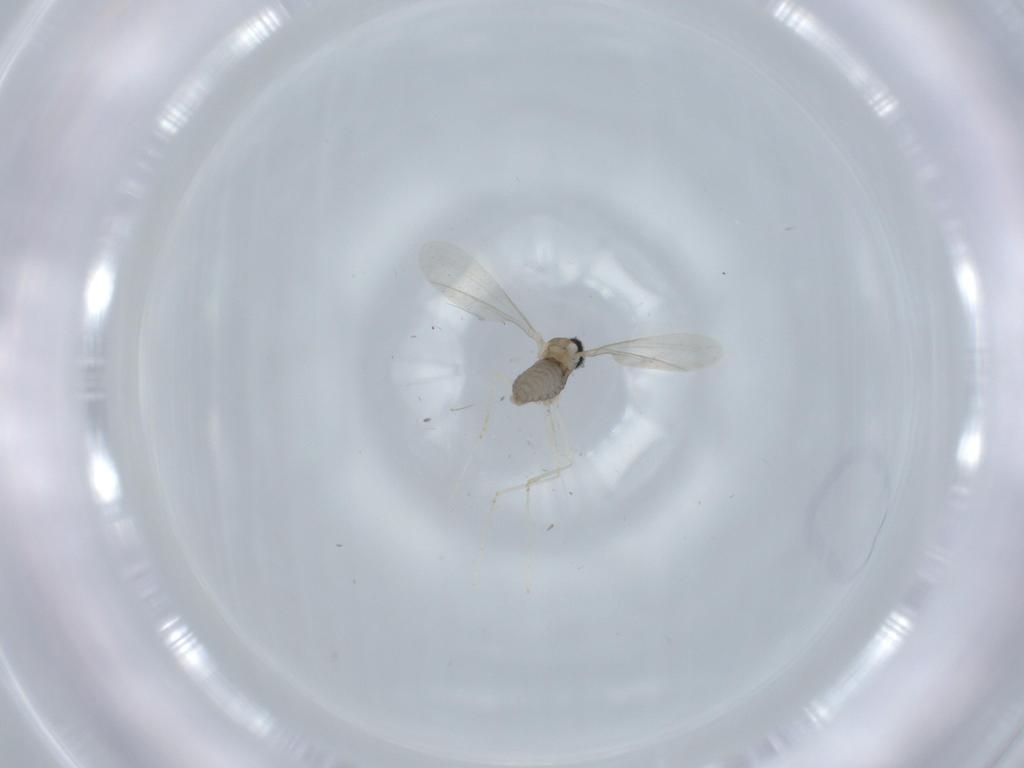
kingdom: Animalia
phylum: Arthropoda
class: Insecta
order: Diptera
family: Cecidomyiidae
